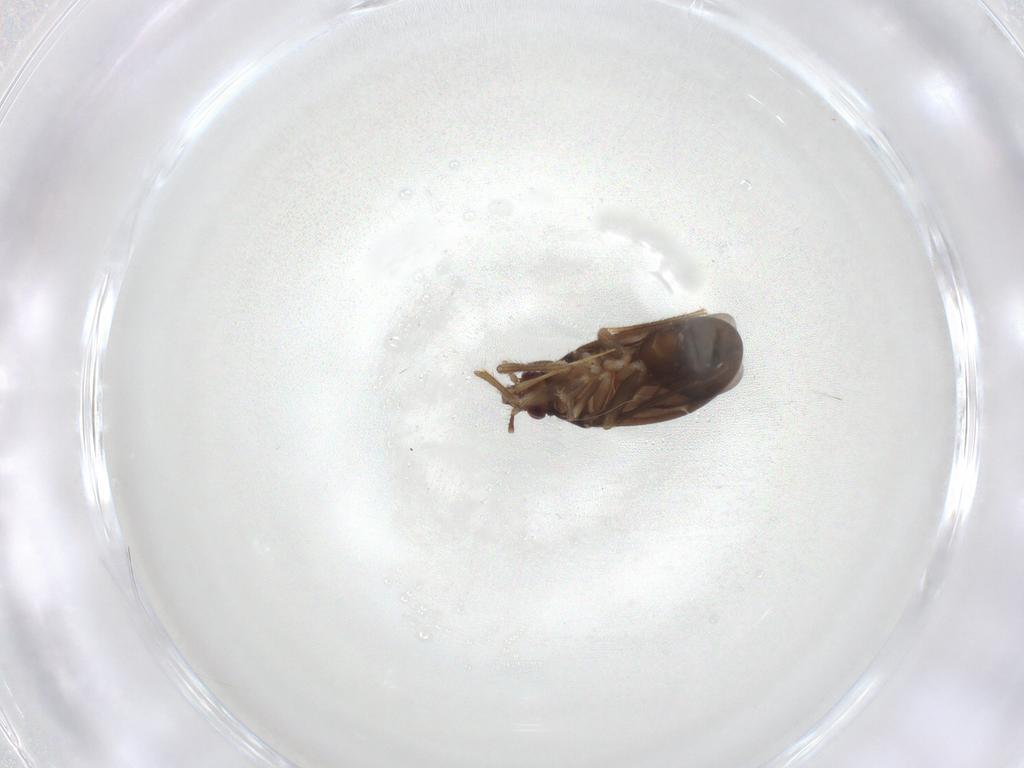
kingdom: Animalia
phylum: Arthropoda
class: Insecta
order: Hemiptera
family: Ceratocombidae
